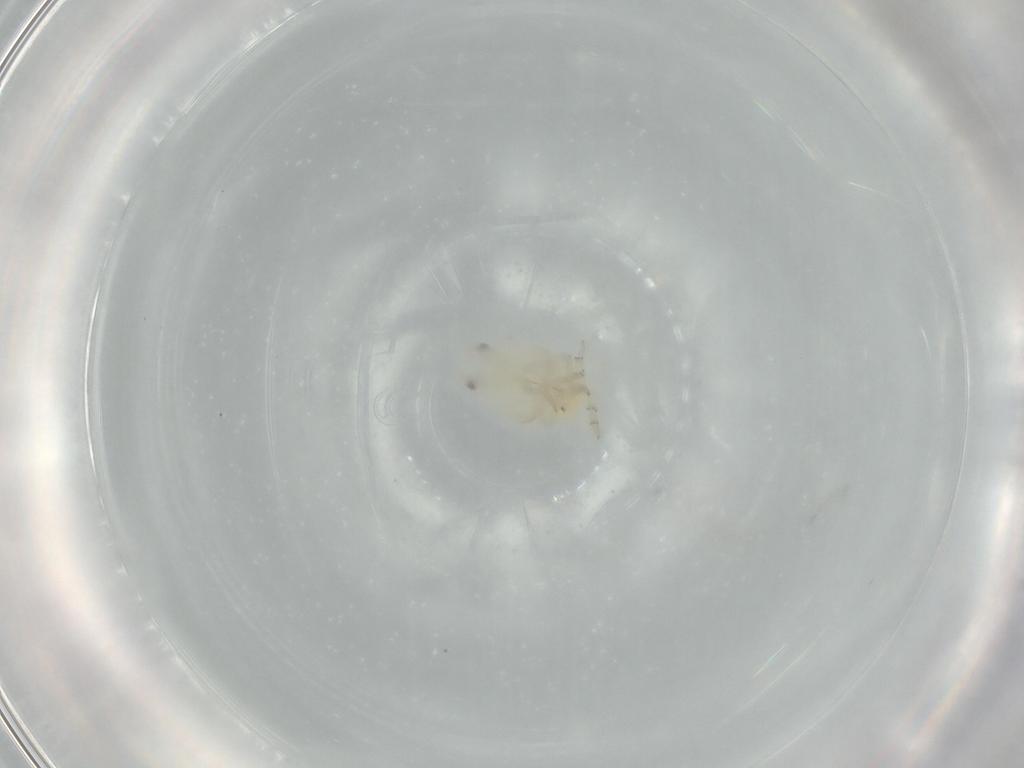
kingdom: Animalia
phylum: Arthropoda
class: Insecta
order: Hemiptera
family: Flatidae
